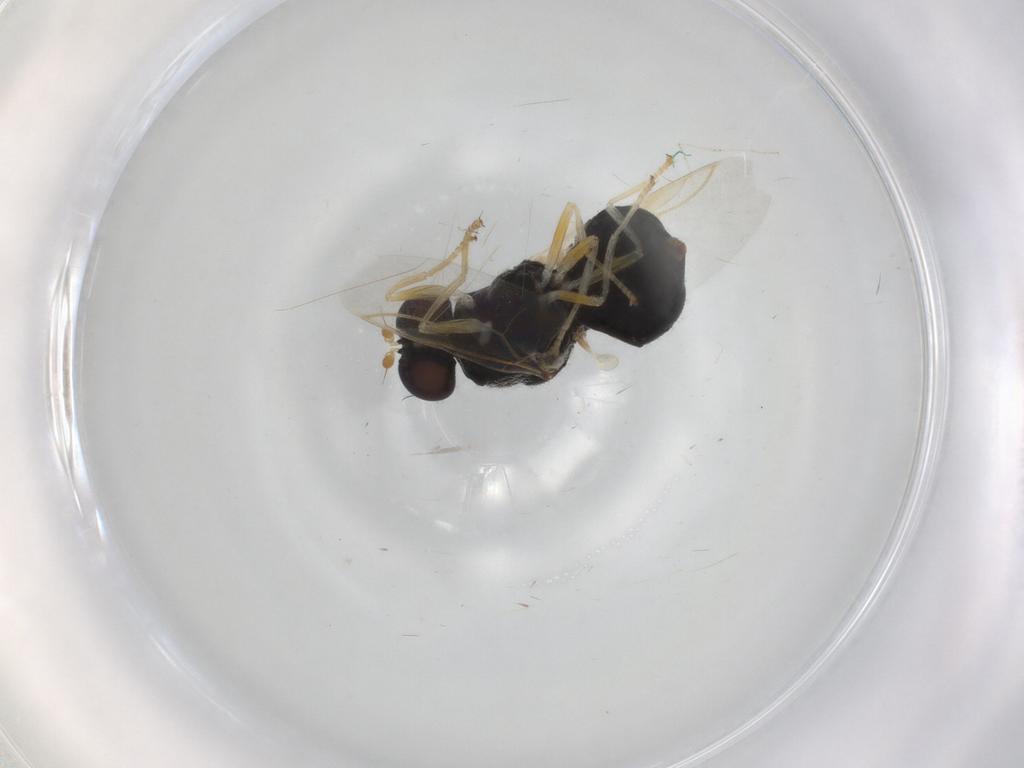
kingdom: Animalia
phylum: Arthropoda
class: Insecta
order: Diptera
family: Stratiomyidae
